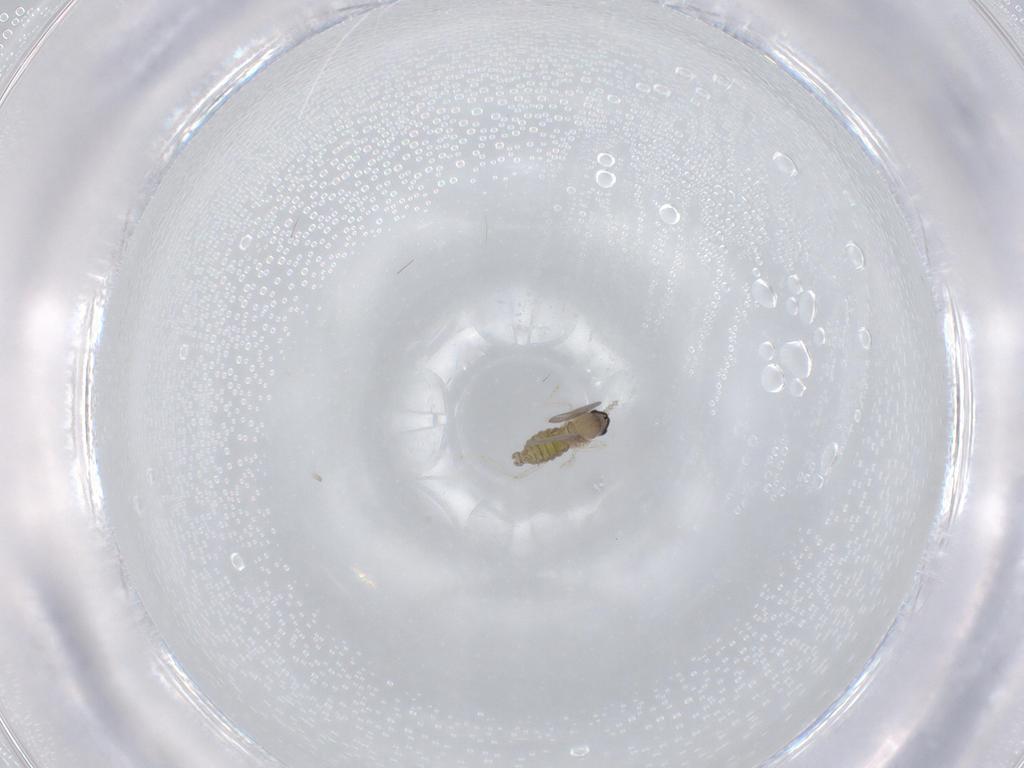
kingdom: Animalia
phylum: Arthropoda
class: Insecta
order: Diptera
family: Cecidomyiidae
